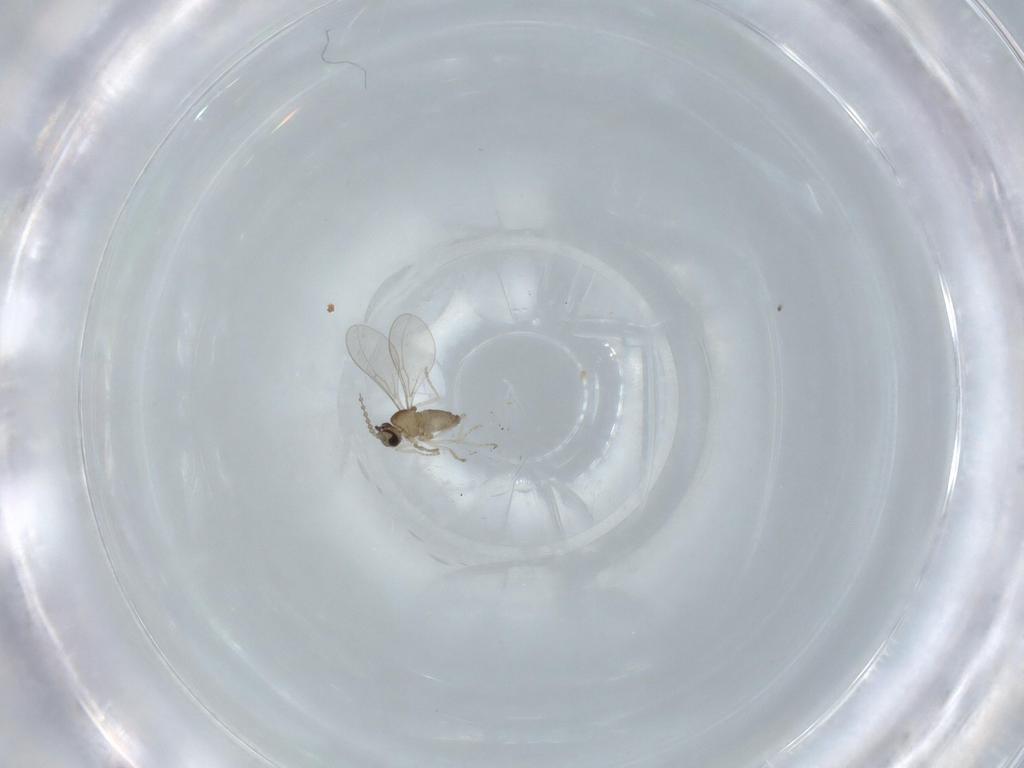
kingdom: Animalia
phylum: Arthropoda
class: Insecta
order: Diptera
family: Cecidomyiidae
